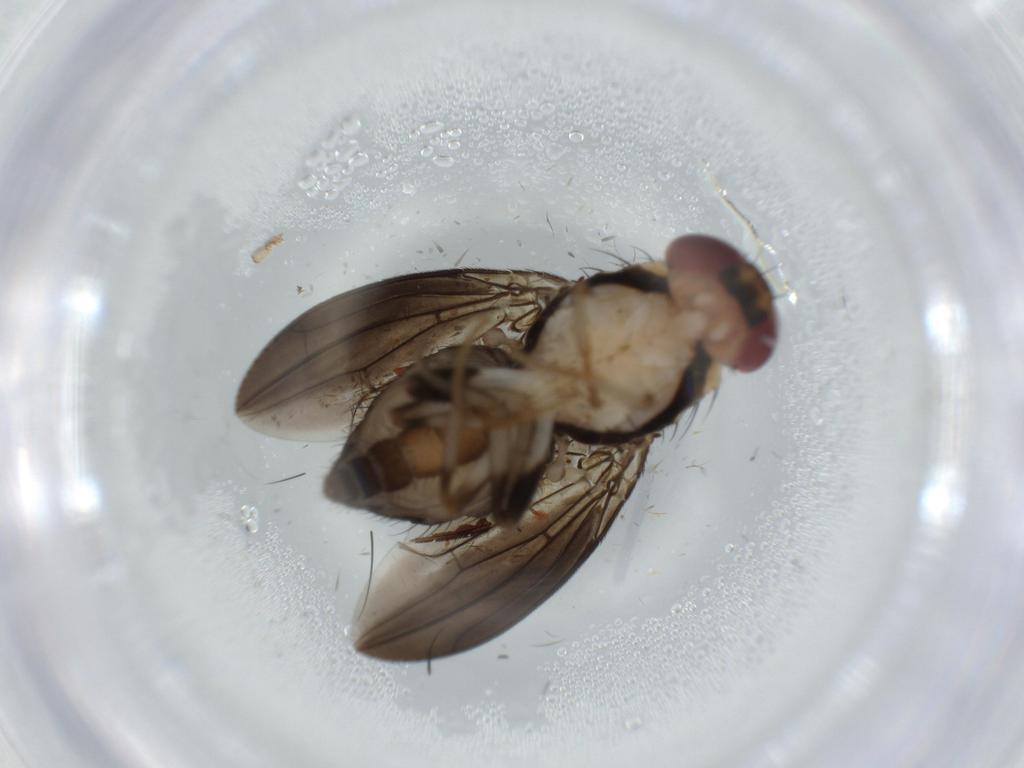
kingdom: Animalia
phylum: Arthropoda
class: Insecta
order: Diptera
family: Drosophilidae
